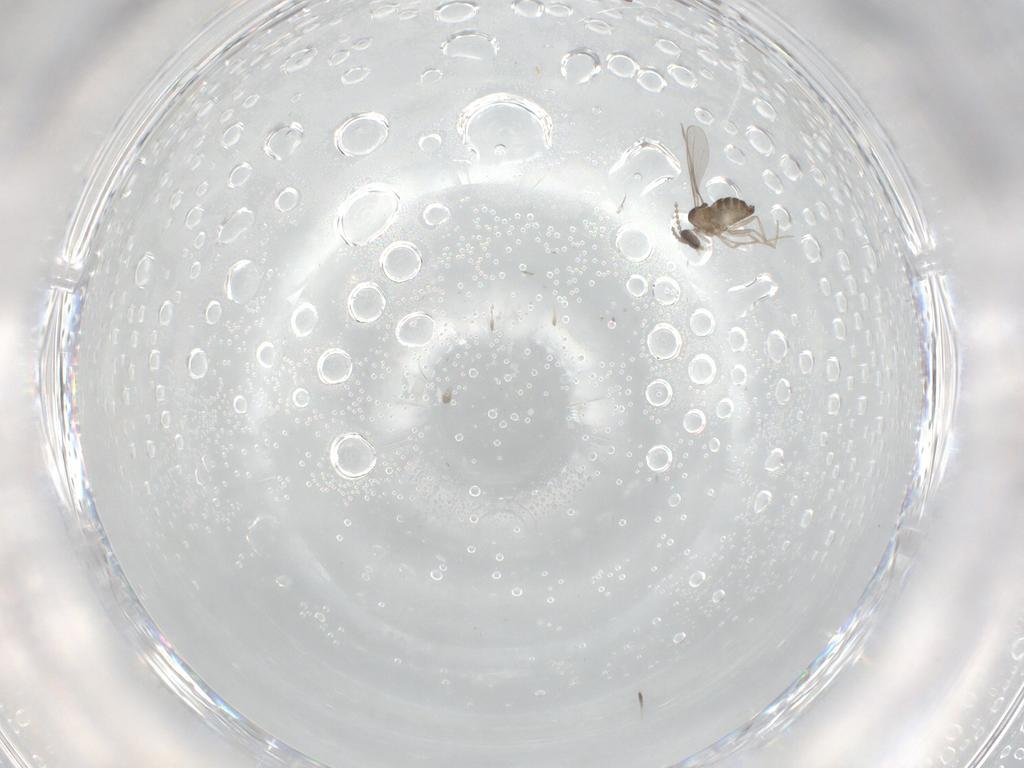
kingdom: Animalia
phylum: Arthropoda
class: Insecta
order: Diptera
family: Cecidomyiidae
